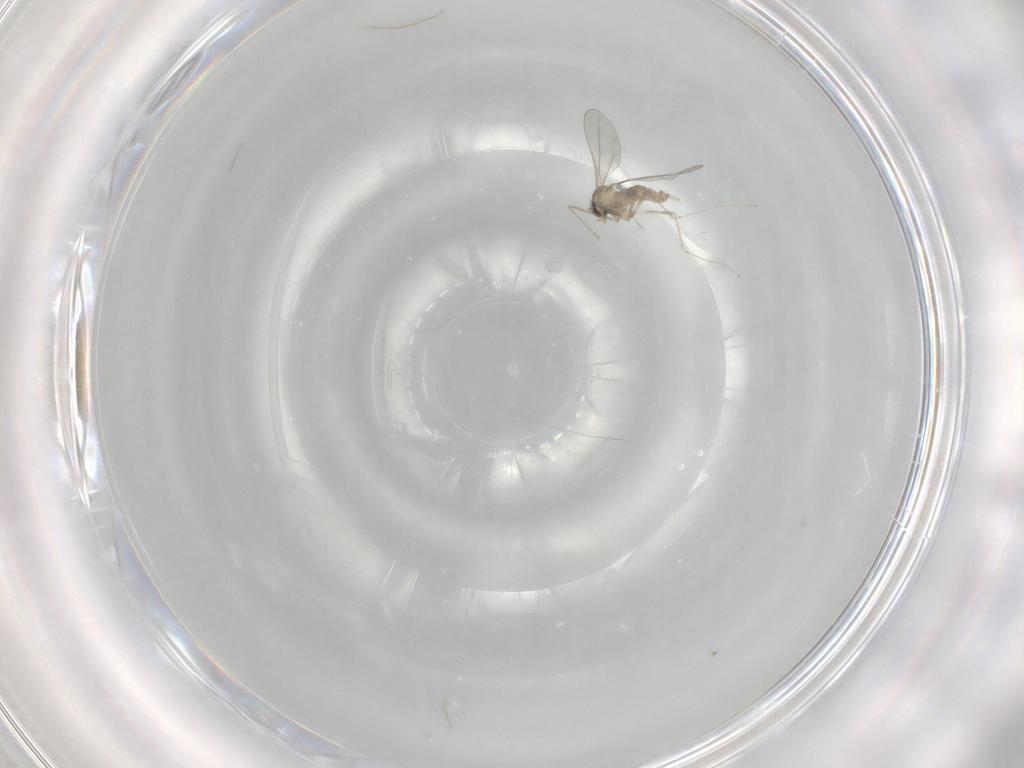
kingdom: Animalia
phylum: Arthropoda
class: Insecta
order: Diptera
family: Cecidomyiidae
